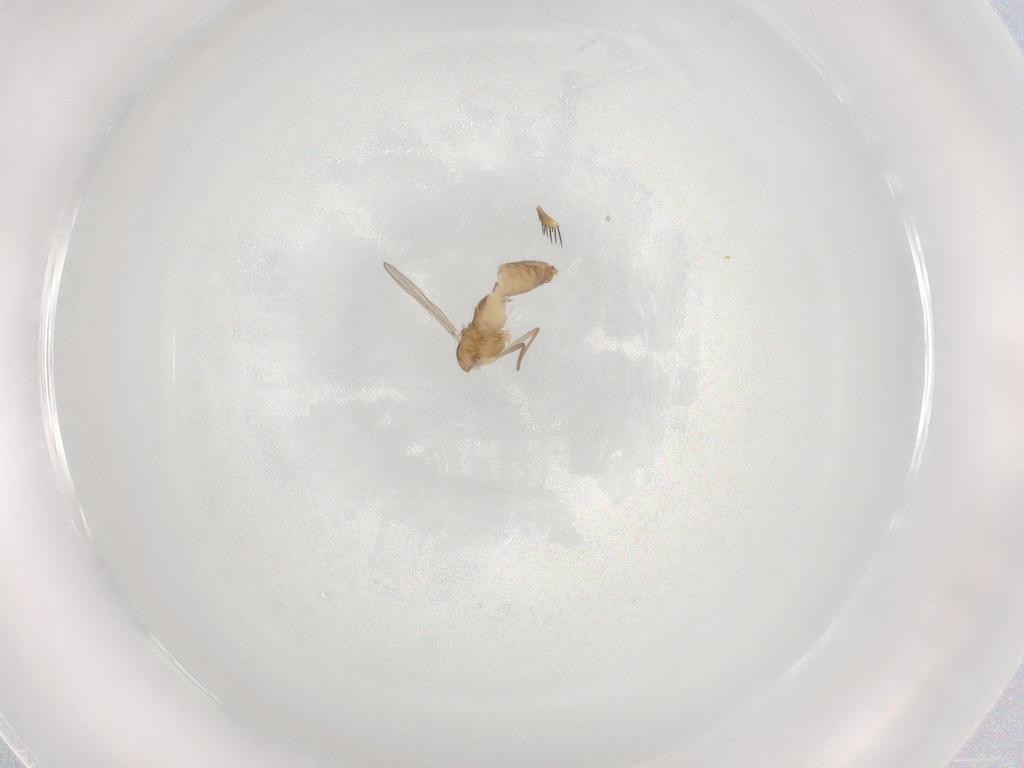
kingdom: Animalia
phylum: Arthropoda
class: Insecta
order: Diptera
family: Chironomidae
